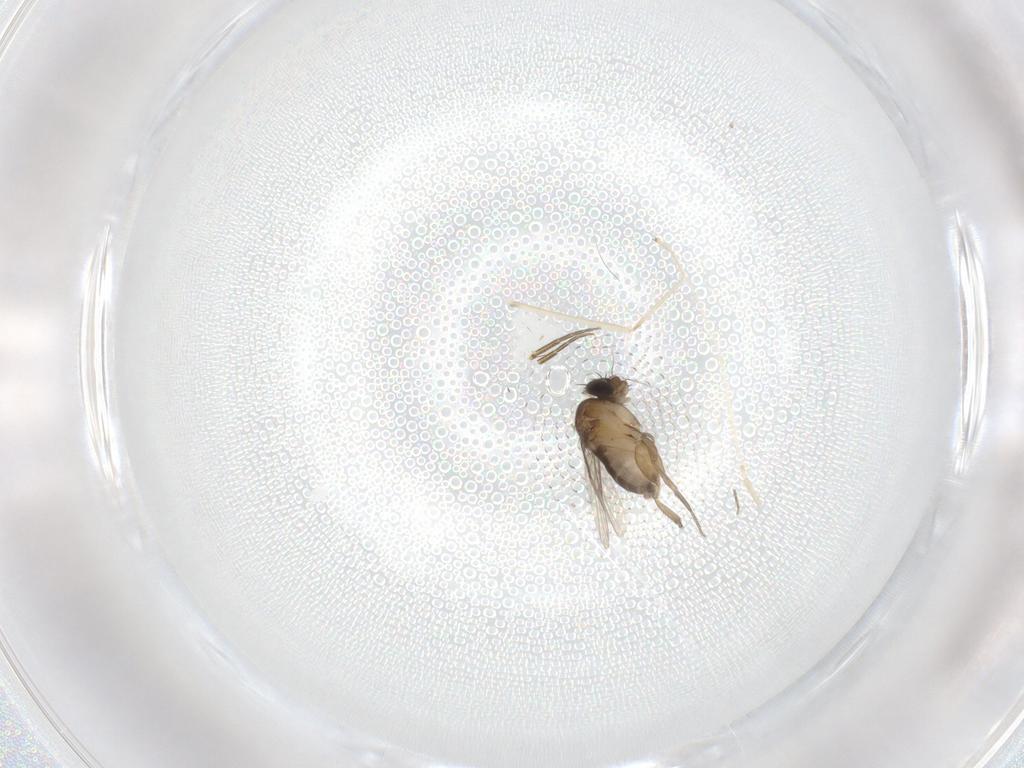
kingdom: Animalia
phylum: Arthropoda
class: Insecta
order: Diptera
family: Phoridae
